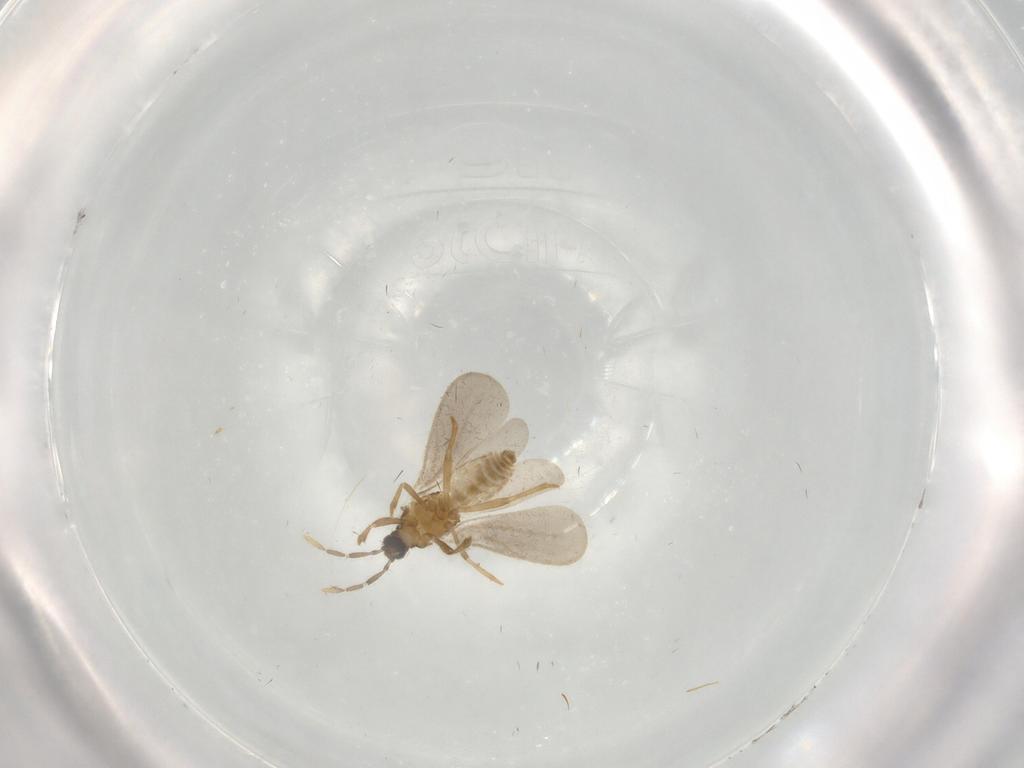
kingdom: Animalia
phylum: Arthropoda
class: Insecta
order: Hemiptera
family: Enicocephalidae
